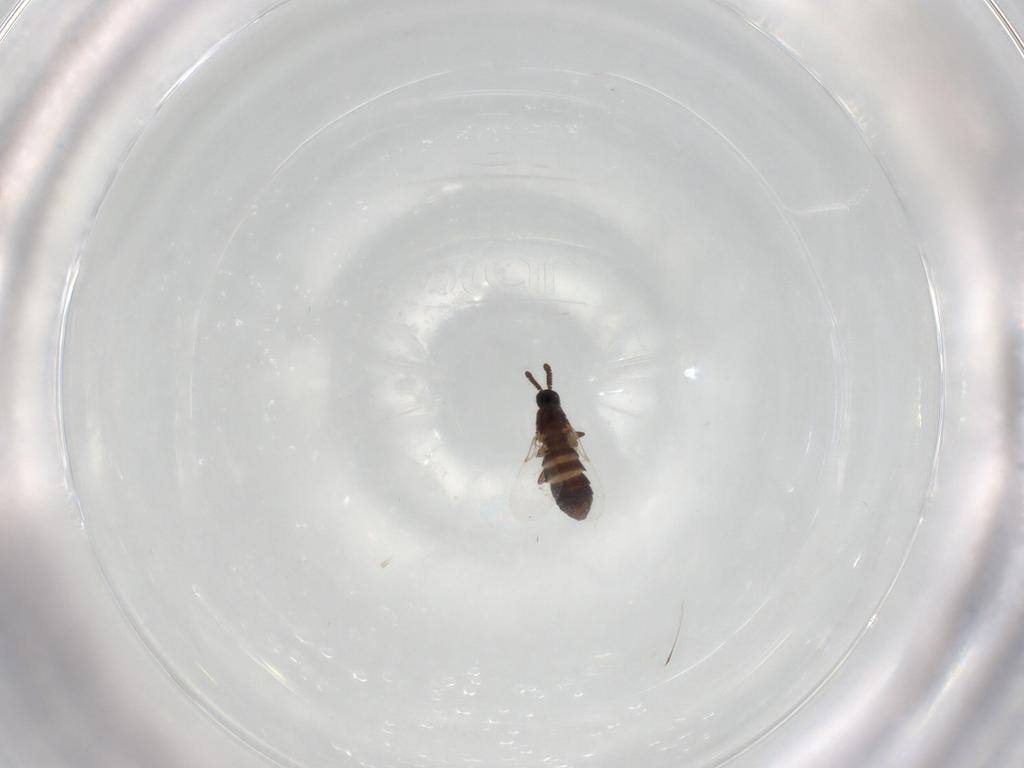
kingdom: Animalia
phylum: Arthropoda
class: Insecta
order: Diptera
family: Scatopsidae
